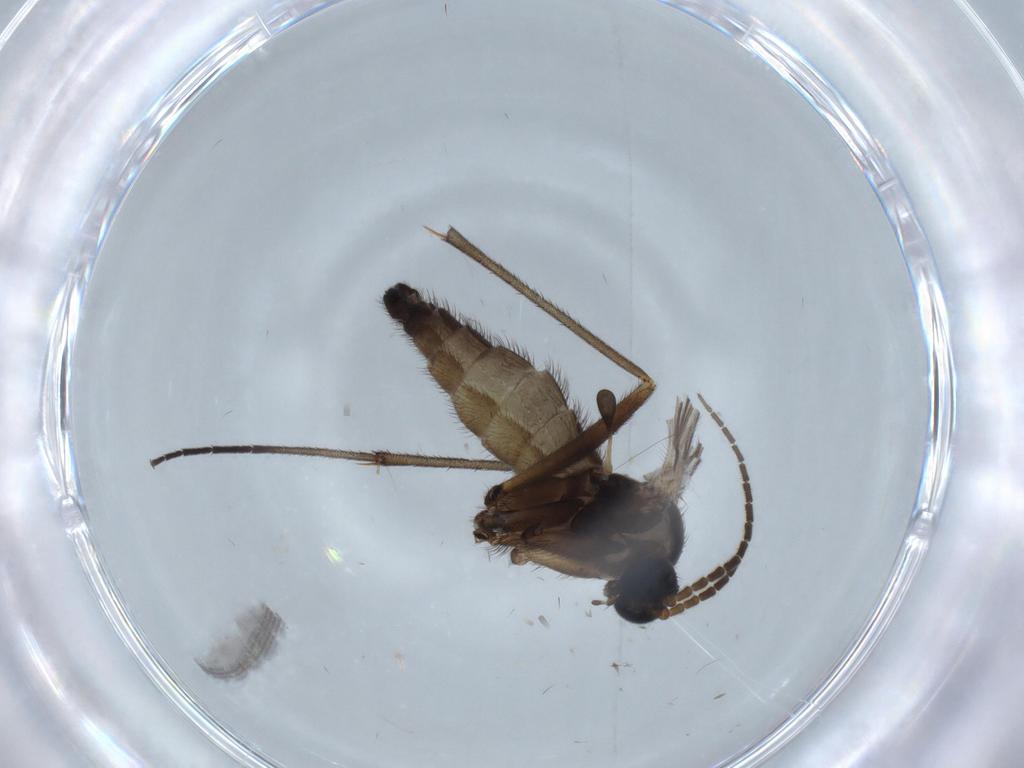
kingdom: Animalia
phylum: Arthropoda
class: Insecta
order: Diptera
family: Sciaridae
